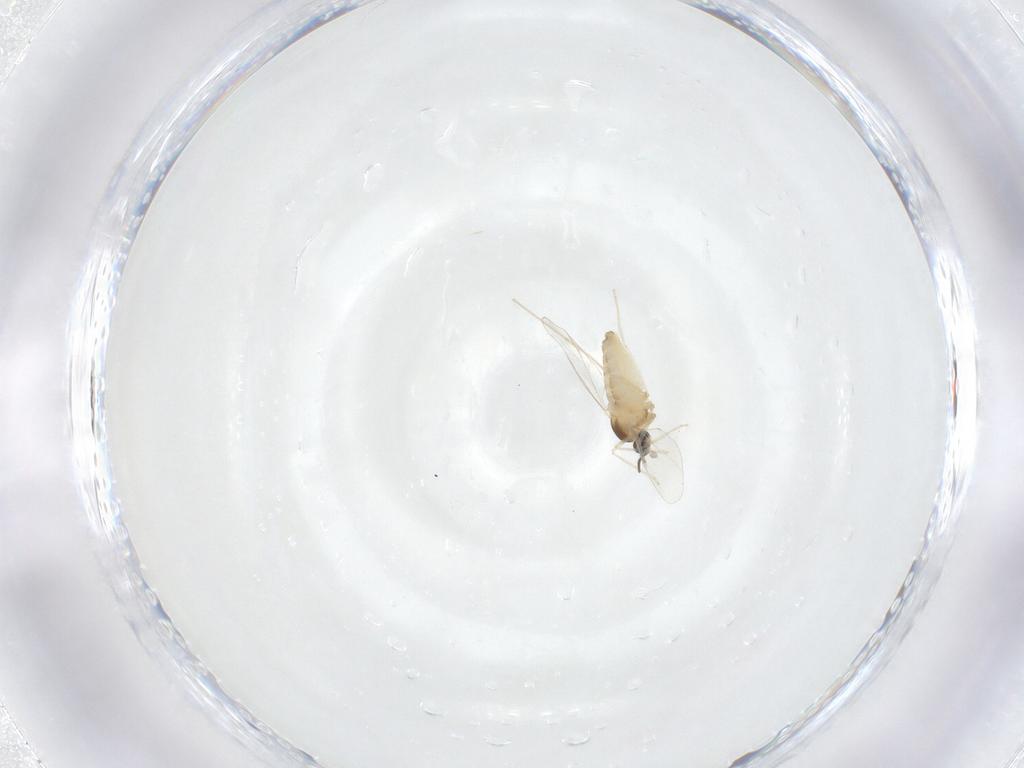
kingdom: Animalia
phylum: Arthropoda
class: Insecta
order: Diptera
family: Cecidomyiidae
